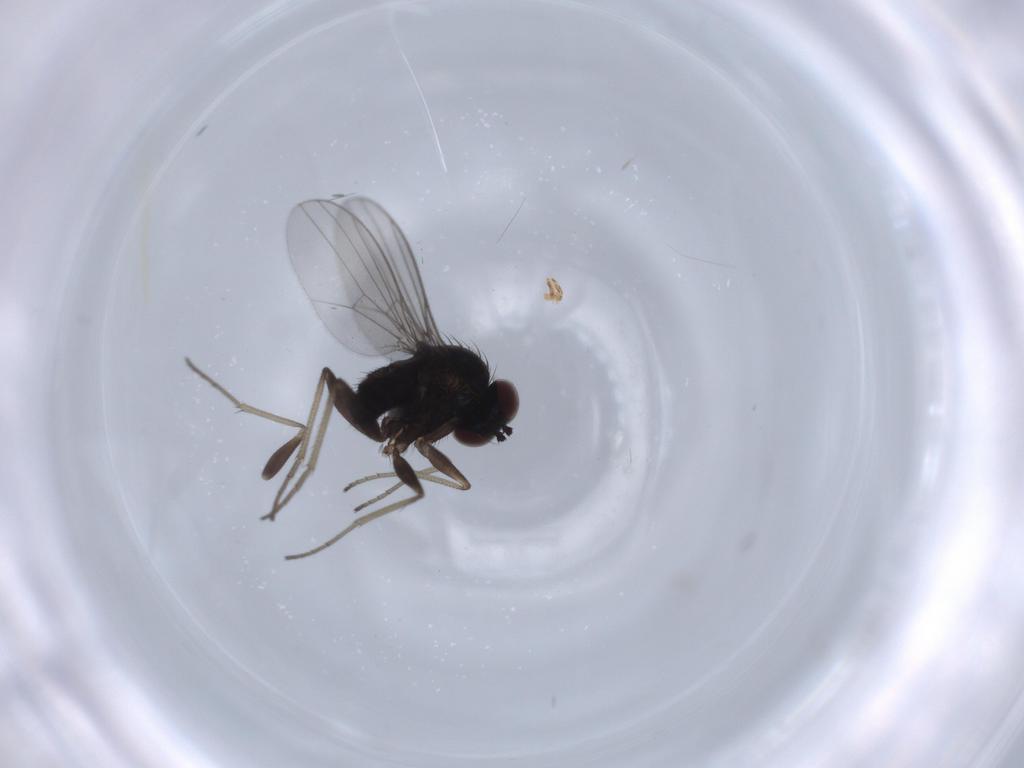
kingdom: Animalia
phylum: Arthropoda
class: Insecta
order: Diptera
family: Dolichopodidae
